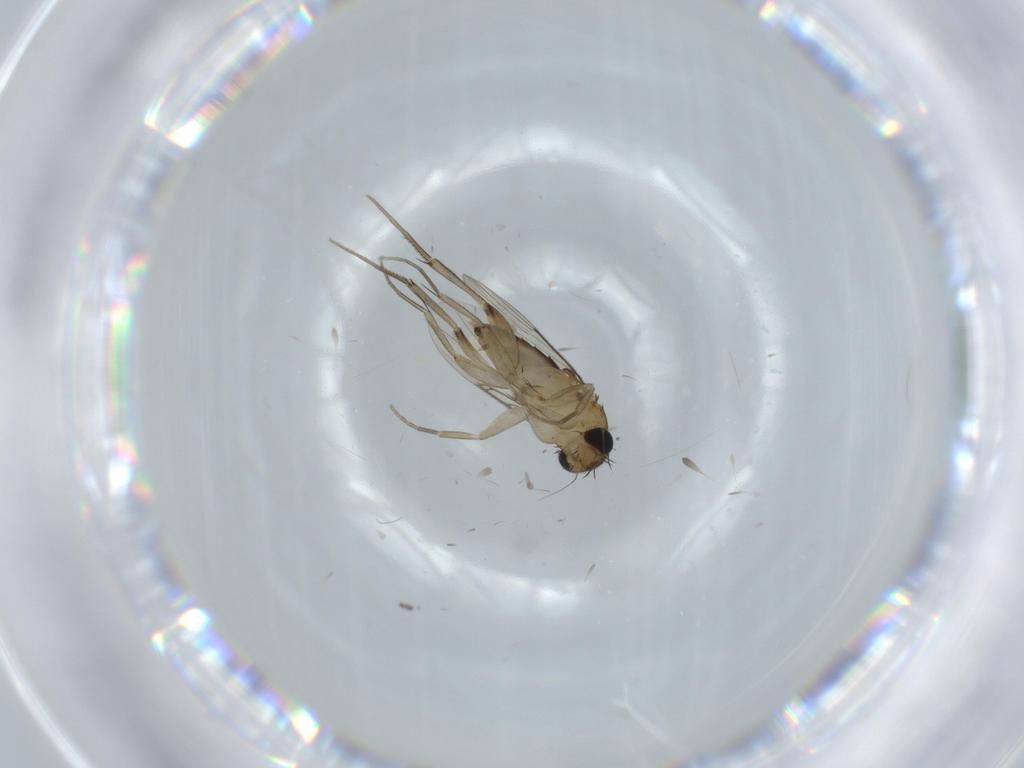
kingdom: Animalia
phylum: Arthropoda
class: Insecta
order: Diptera
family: Phoridae
